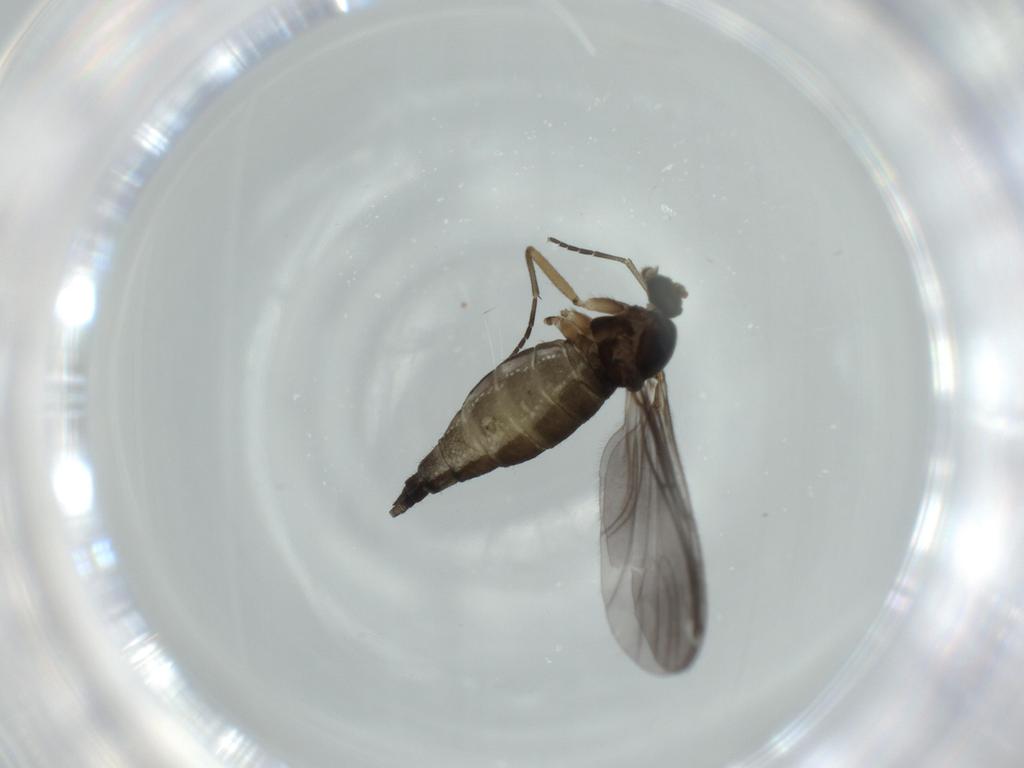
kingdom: Animalia
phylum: Arthropoda
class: Insecta
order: Diptera
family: Sciaridae
